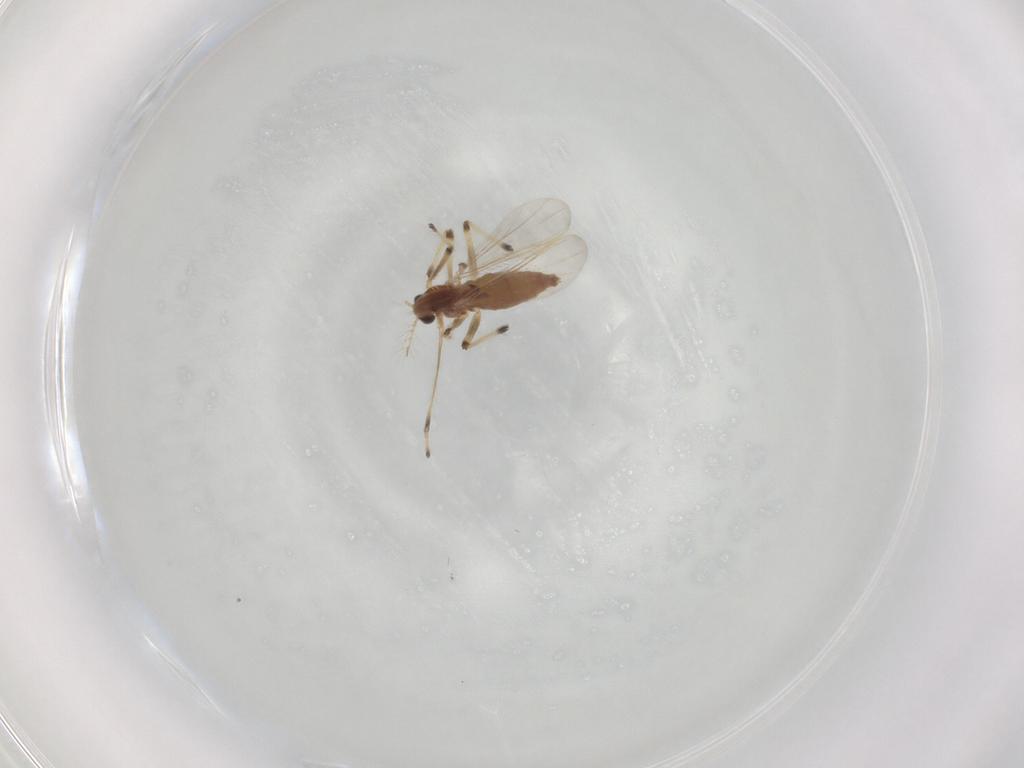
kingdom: Animalia
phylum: Arthropoda
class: Insecta
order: Diptera
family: Chironomidae
